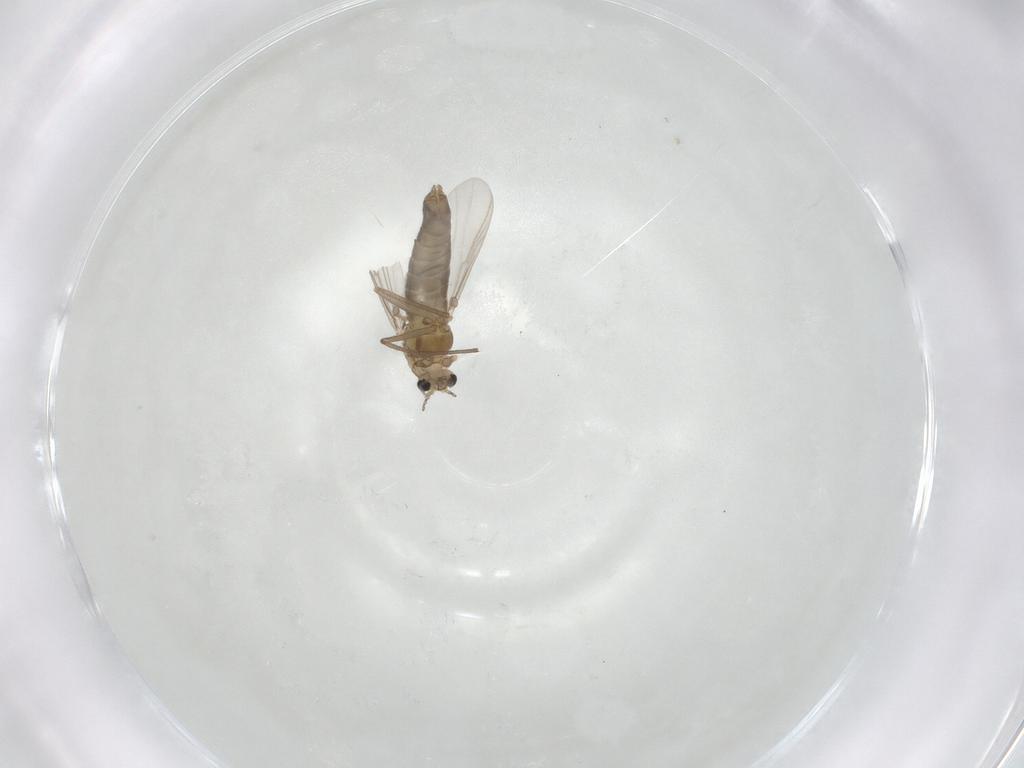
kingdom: Animalia
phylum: Arthropoda
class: Insecta
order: Diptera
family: Chironomidae
